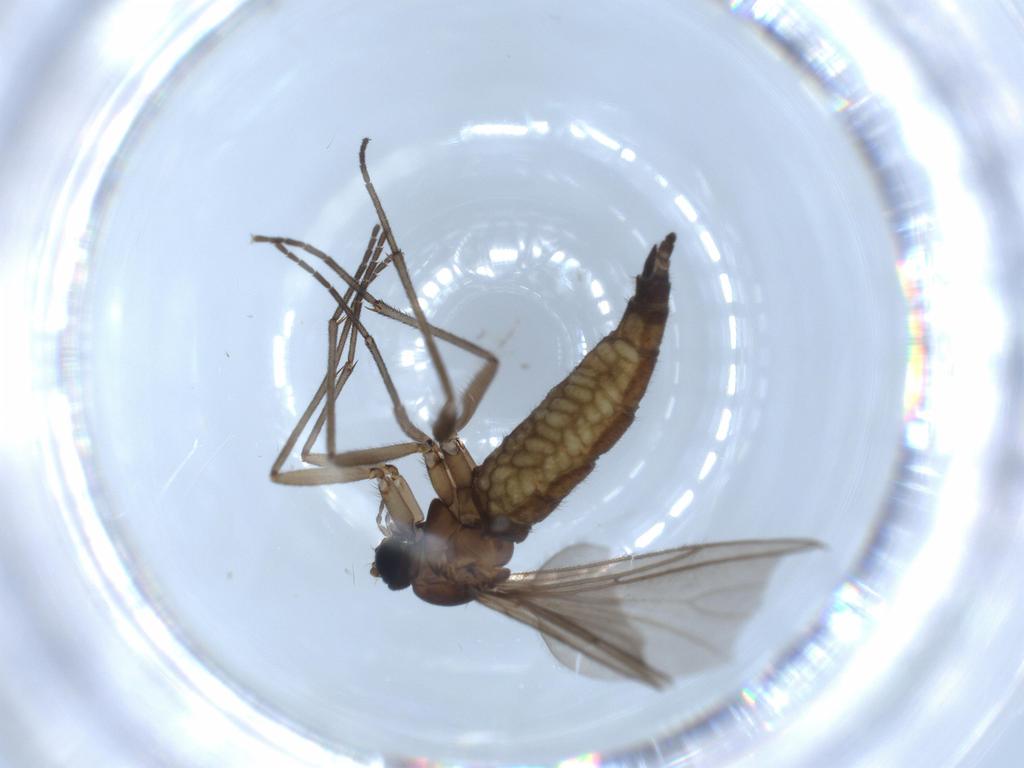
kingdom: Animalia
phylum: Arthropoda
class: Insecta
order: Diptera
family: Sciaridae
